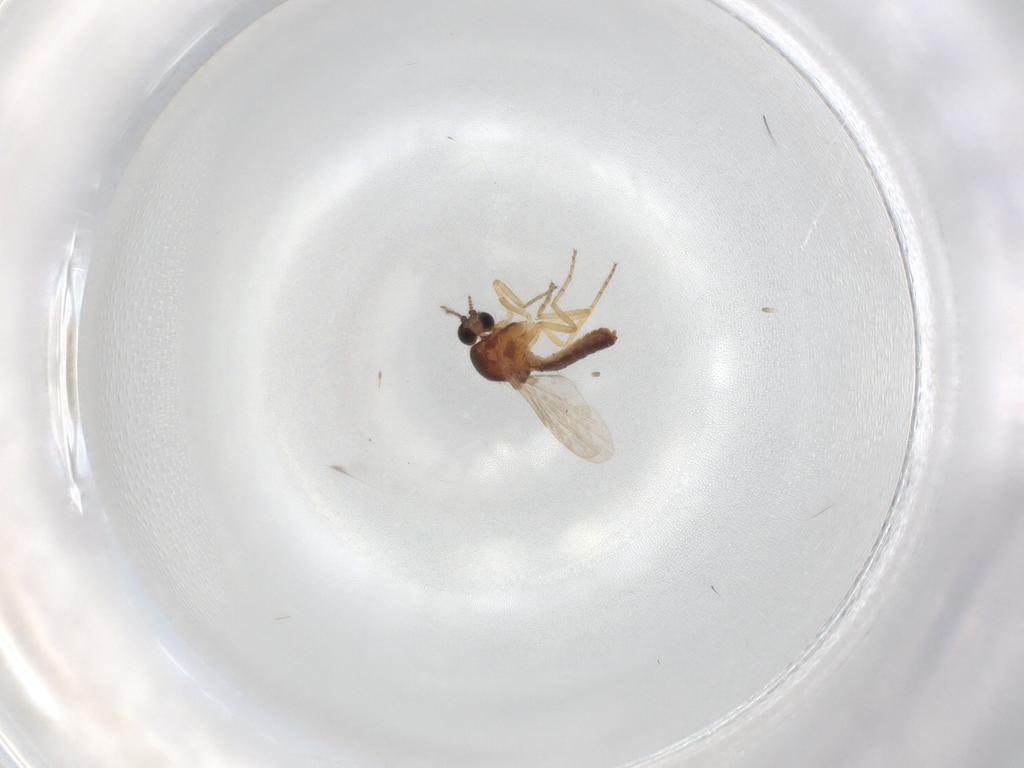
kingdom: Animalia
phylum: Arthropoda
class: Insecta
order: Diptera
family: Ceratopogonidae
